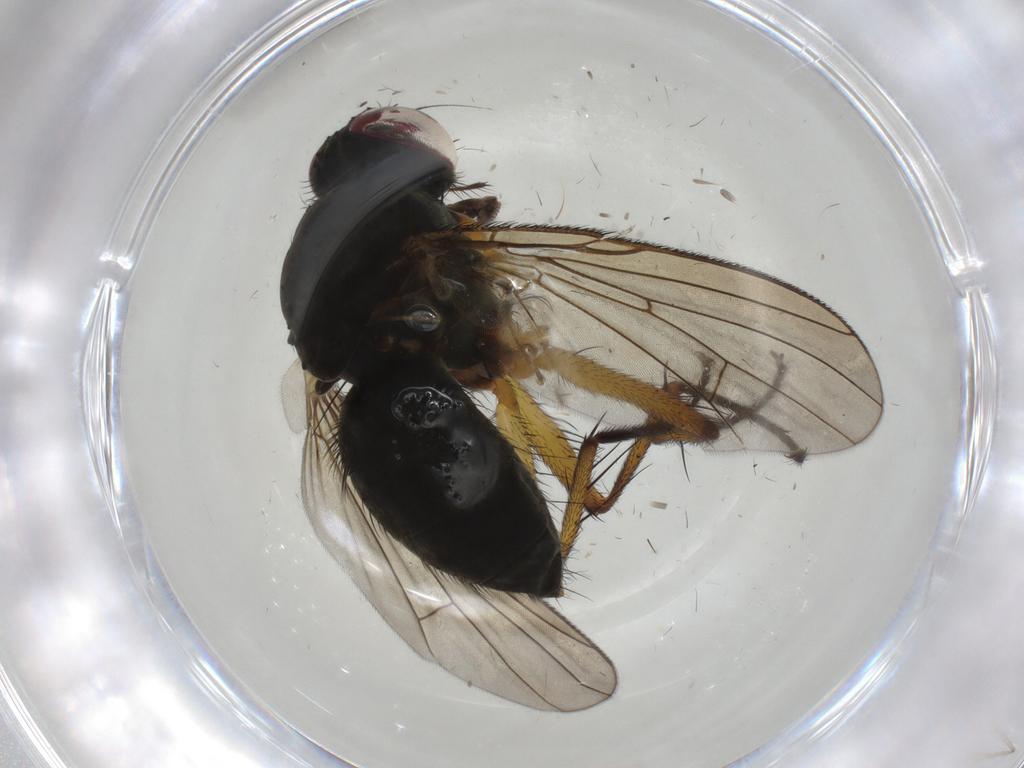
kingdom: Animalia
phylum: Arthropoda
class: Insecta
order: Diptera
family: Muscidae
